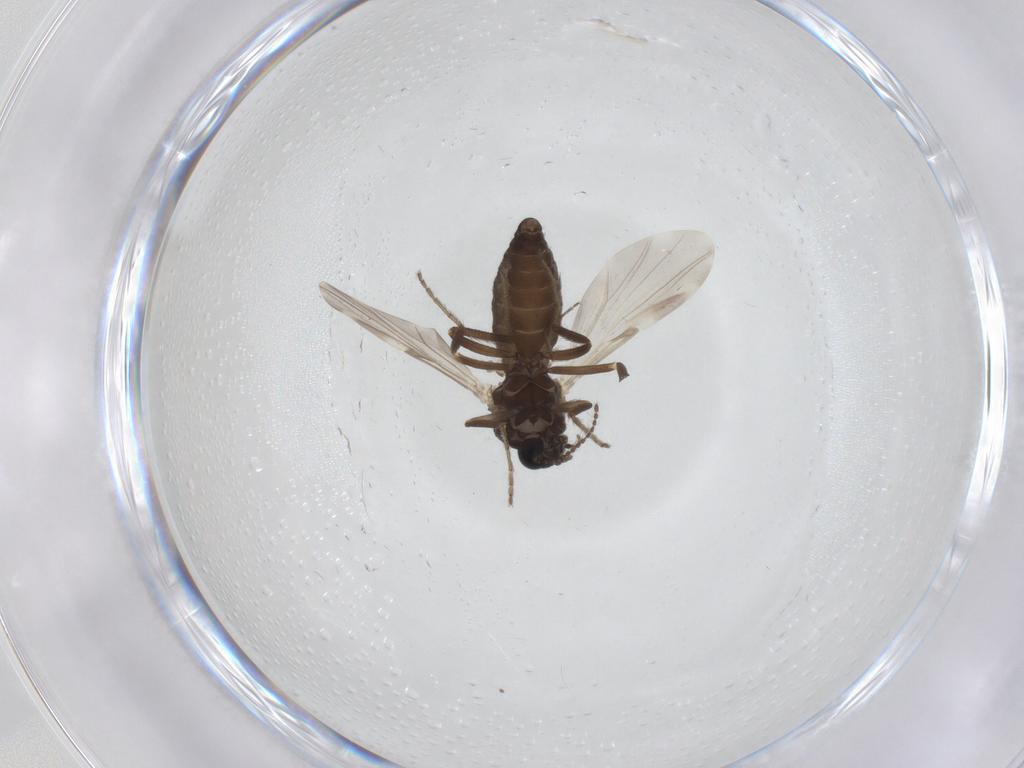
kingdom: Animalia
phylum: Arthropoda
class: Insecta
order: Diptera
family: Ceratopogonidae
